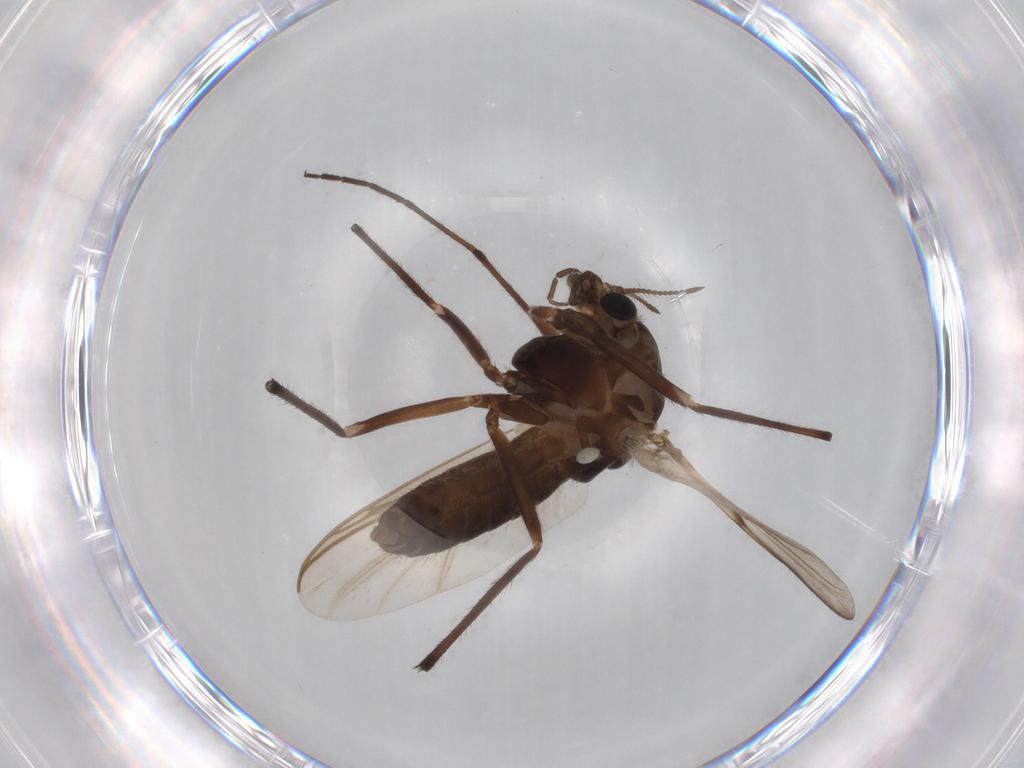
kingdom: Animalia
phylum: Arthropoda
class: Insecta
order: Diptera
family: Chironomidae
